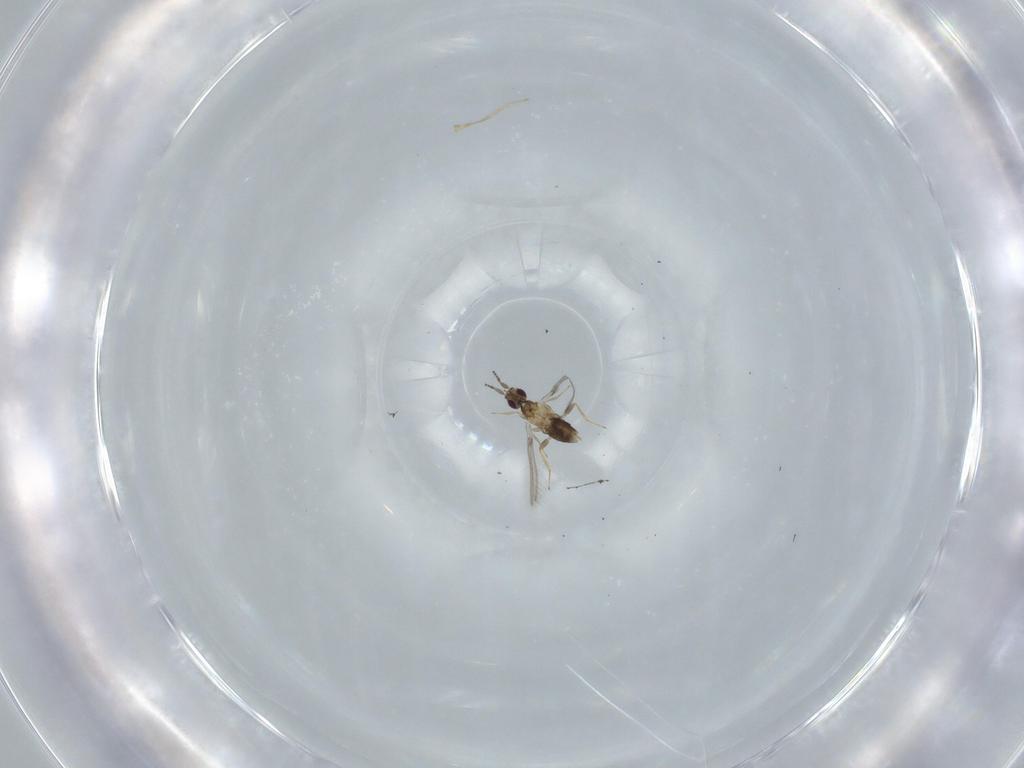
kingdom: Animalia
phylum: Arthropoda
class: Insecta
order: Hymenoptera
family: Mymaridae
